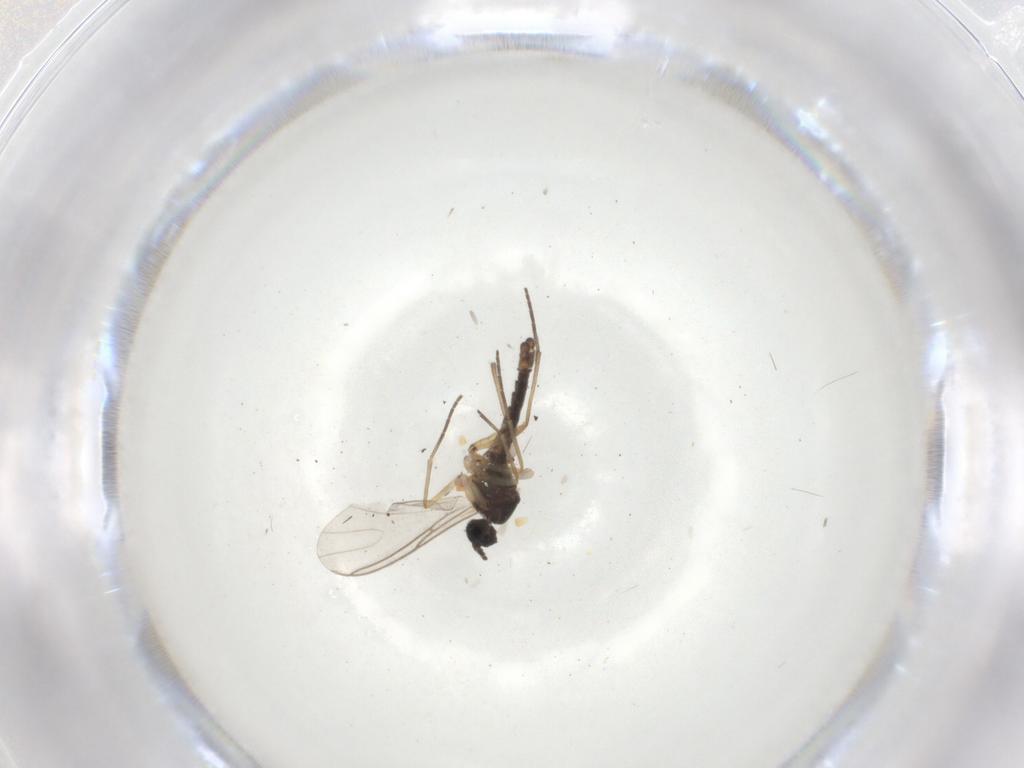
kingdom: Animalia
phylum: Arthropoda
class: Insecta
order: Diptera
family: Sciaridae
